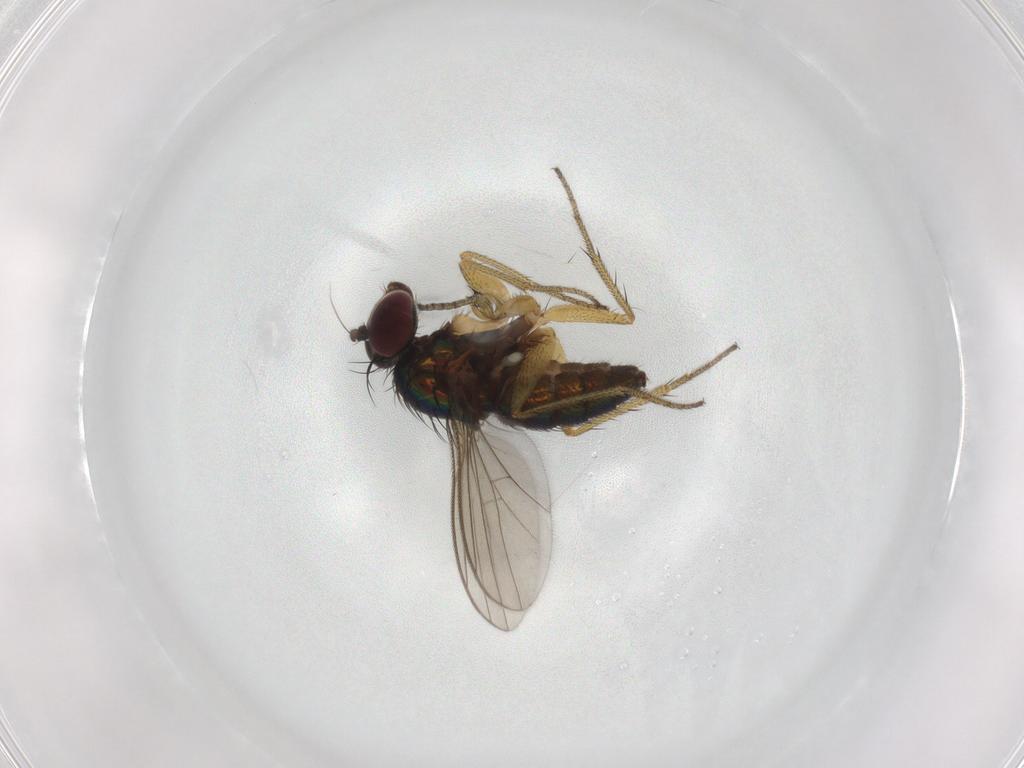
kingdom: Animalia
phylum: Arthropoda
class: Insecta
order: Diptera
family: Dolichopodidae
